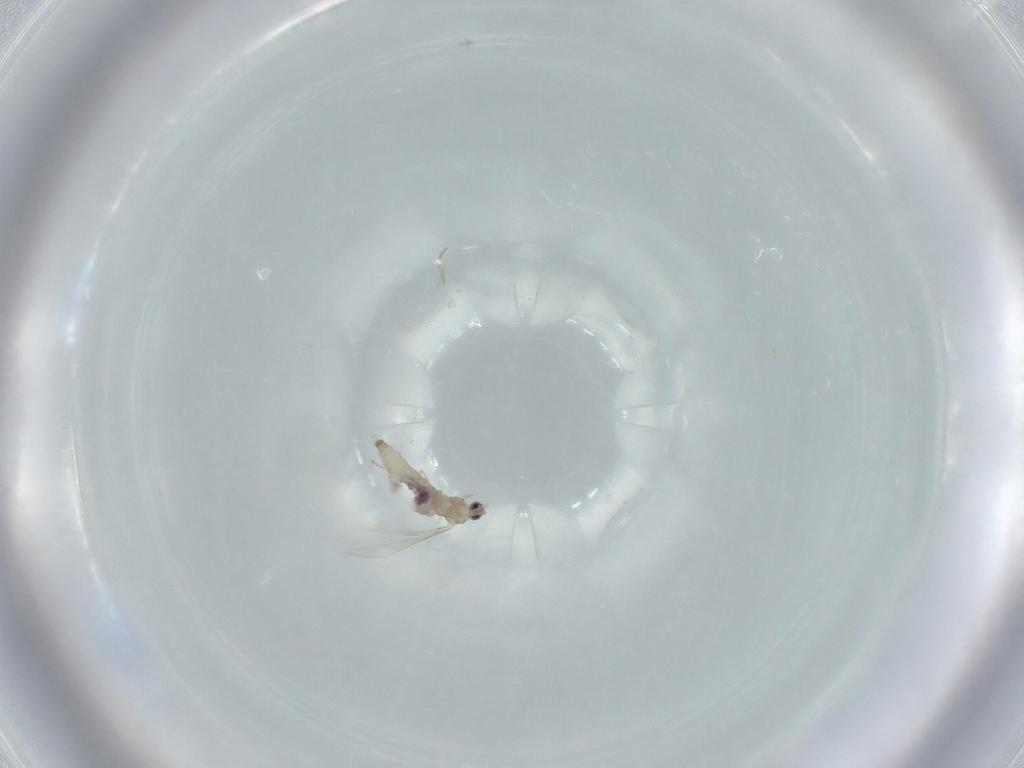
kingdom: Animalia
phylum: Arthropoda
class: Insecta
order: Diptera
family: Cecidomyiidae
